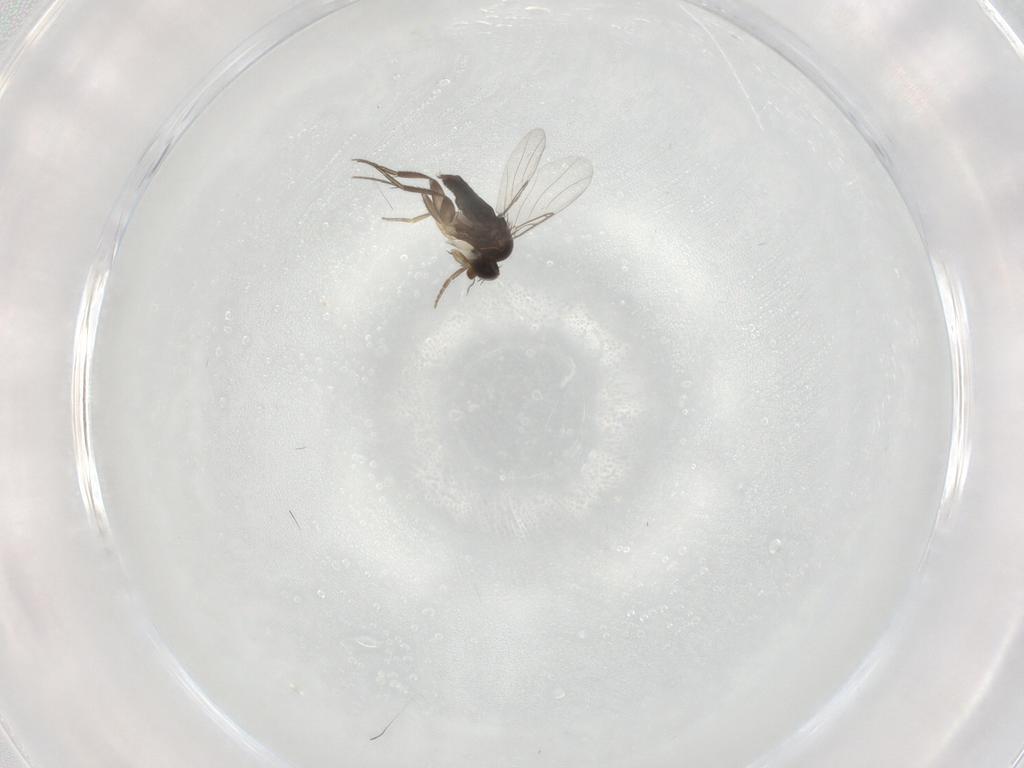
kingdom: Animalia
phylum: Arthropoda
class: Insecta
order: Diptera
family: Phoridae
